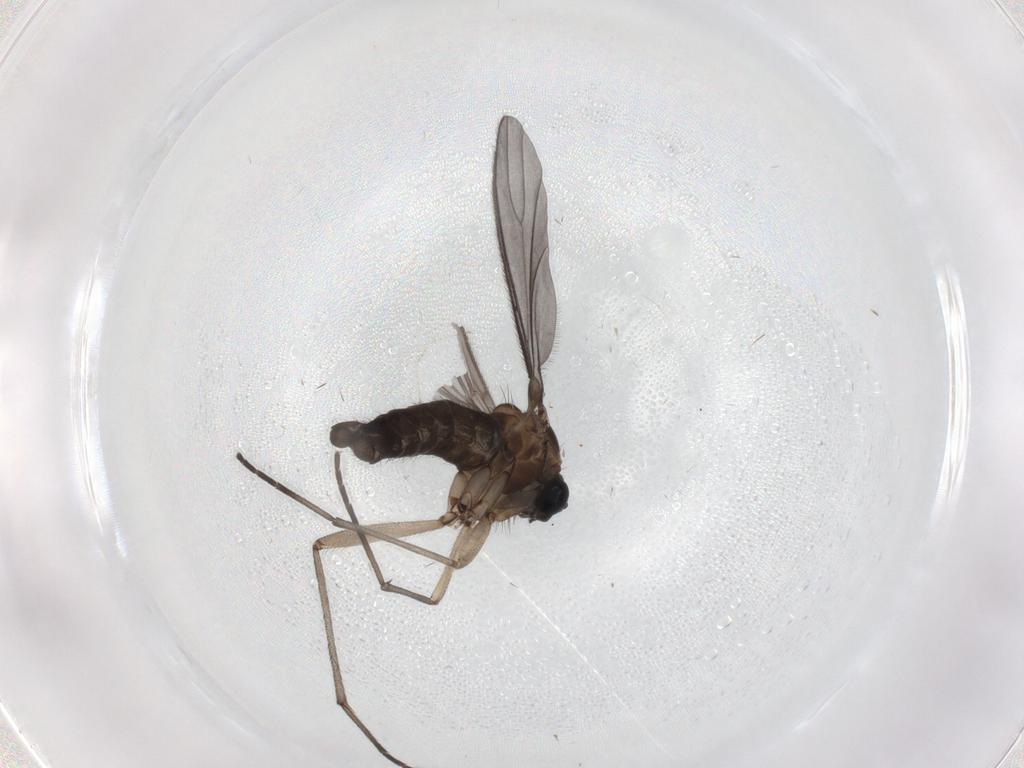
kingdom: Animalia
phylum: Arthropoda
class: Insecta
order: Diptera
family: Sciaridae
